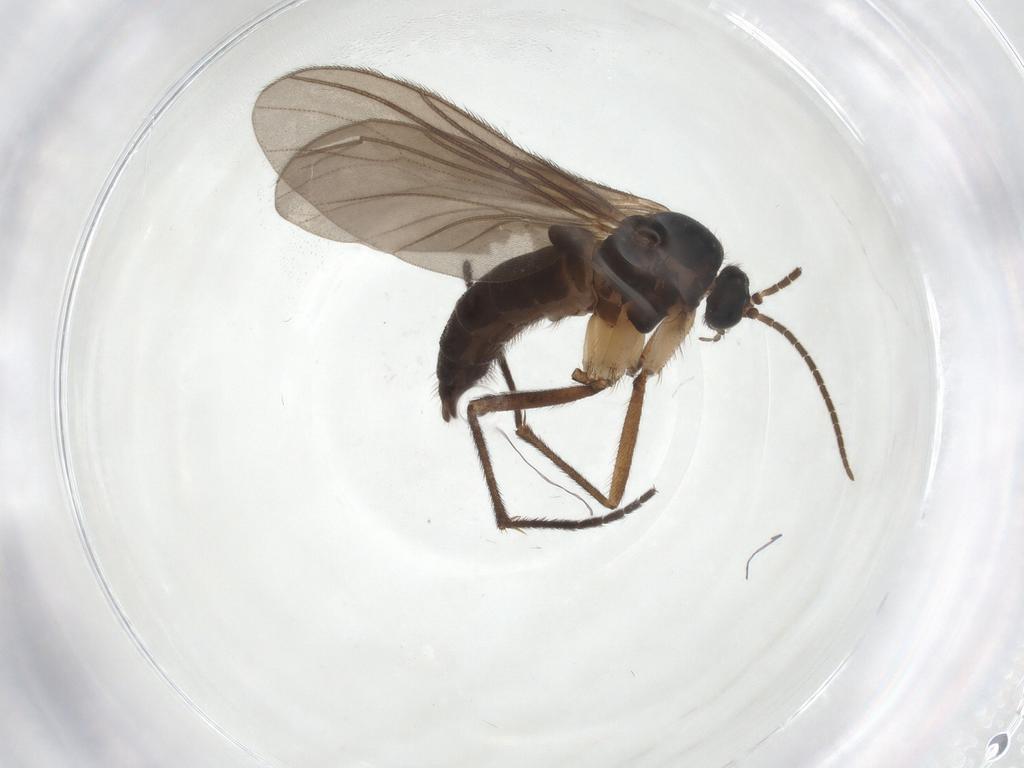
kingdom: Animalia
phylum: Arthropoda
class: Insecta
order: Diptera
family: Sciaridae
